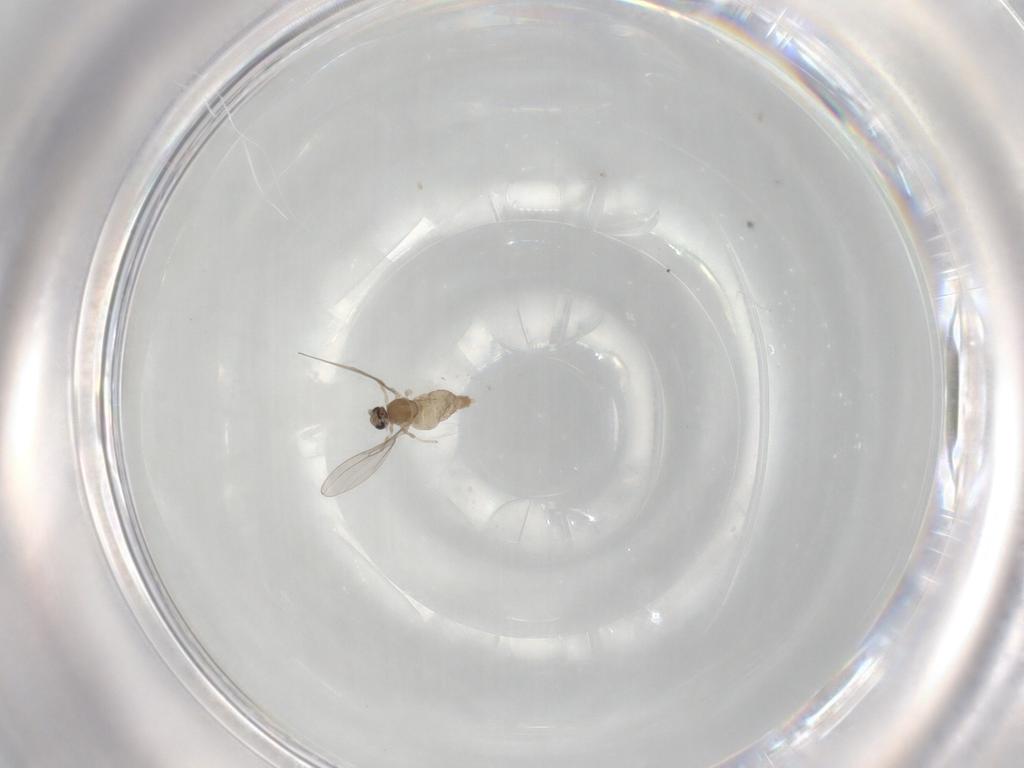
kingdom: Animalia
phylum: Arthropoda
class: Insecta
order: Diptera
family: Cecidomyiidae
